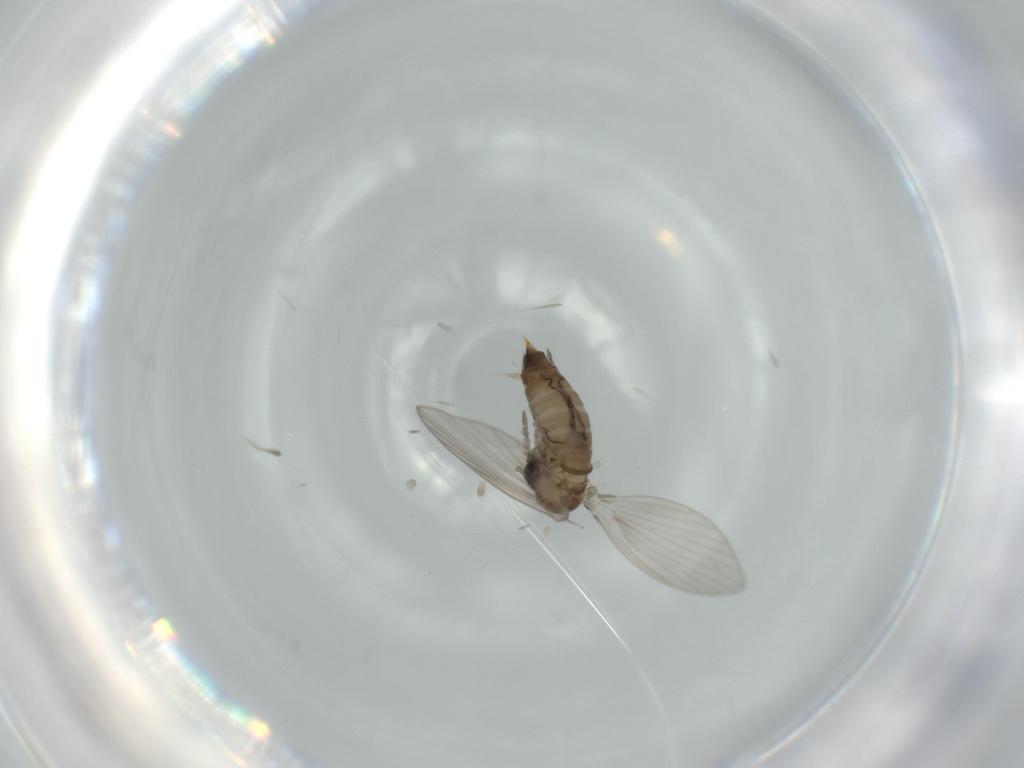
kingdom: Animalia
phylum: Arthropoda
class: Insecta
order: Diptera
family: Psychodidae
